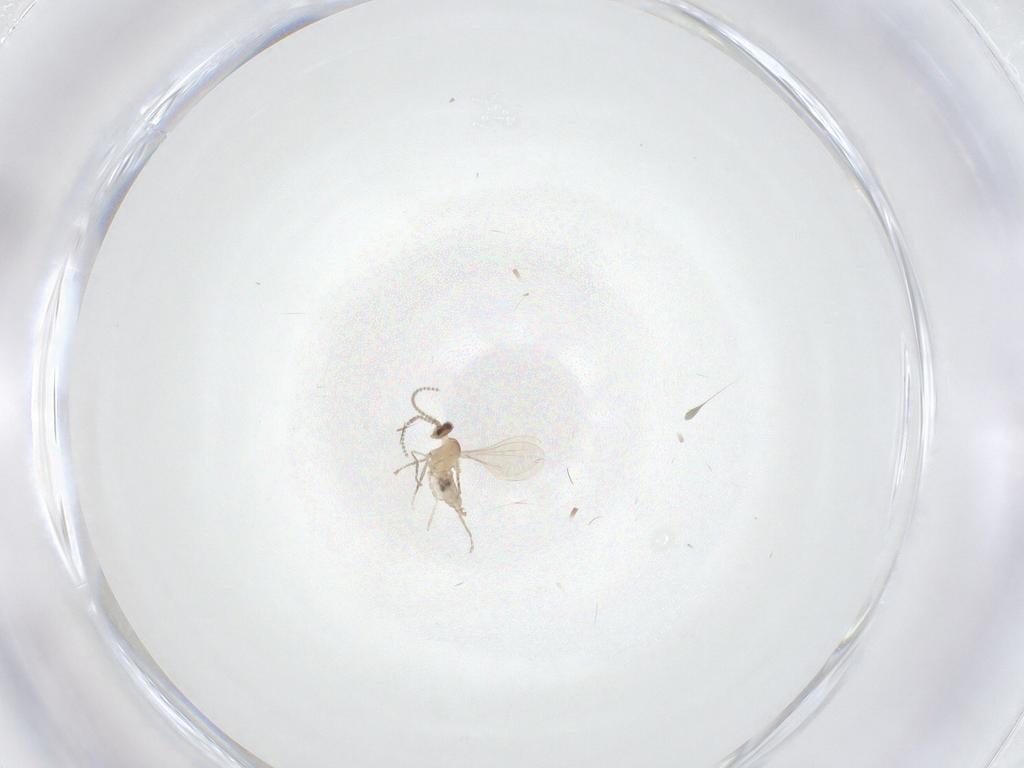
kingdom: Animalia
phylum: Arthropoda
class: Insecta
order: Diptera
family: Cecidomyiidae
